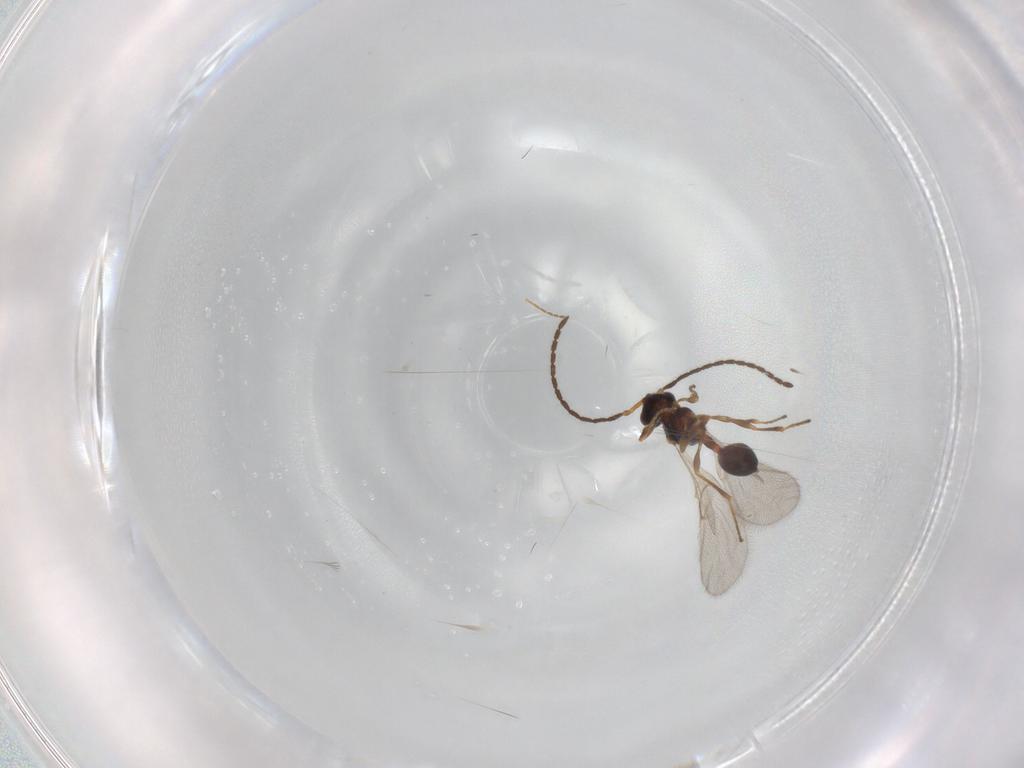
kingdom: Animalia
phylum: Arthropoda
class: Insecta
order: Hymenoptera
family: Diapriidae
